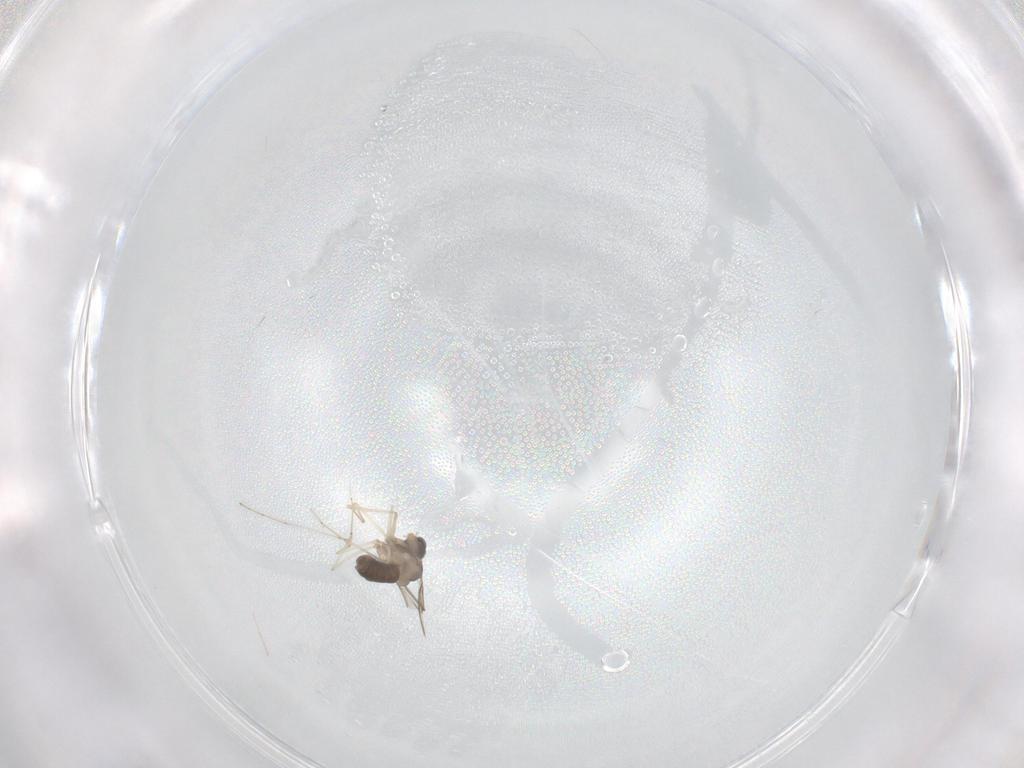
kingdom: Animalia
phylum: Arthropoda
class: Insecta
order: Diptera
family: Cecidomyiidae
